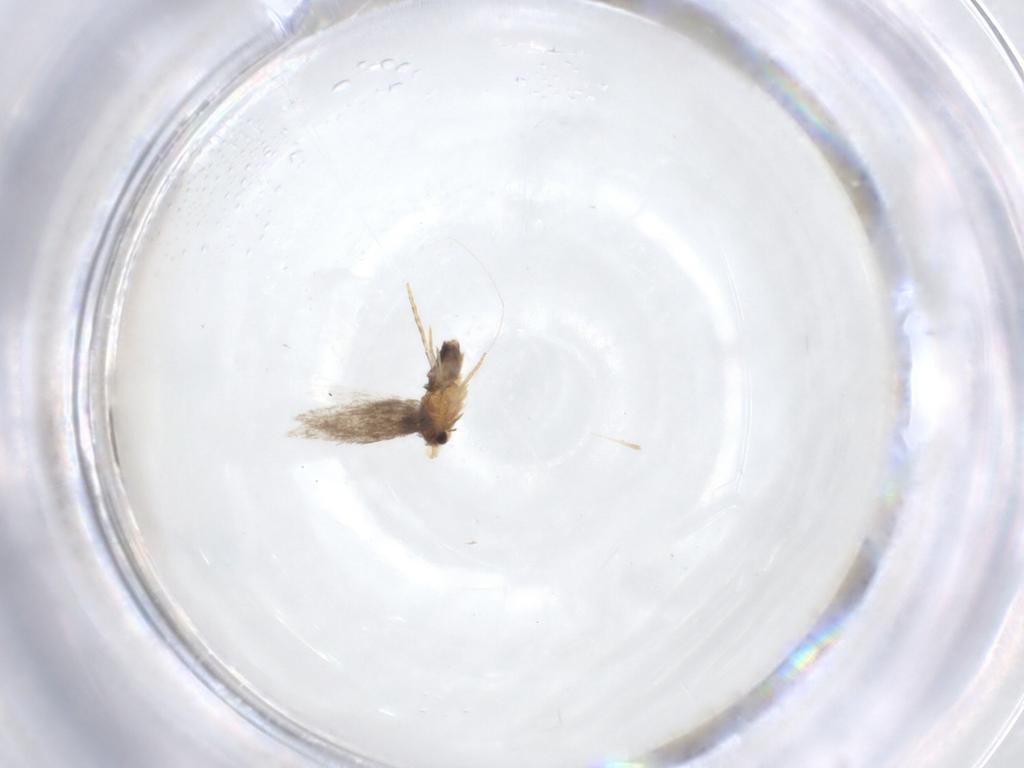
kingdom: Animalia
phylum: Arthropoda
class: Insecta
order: Lepidoptera
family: Nepticulidae
